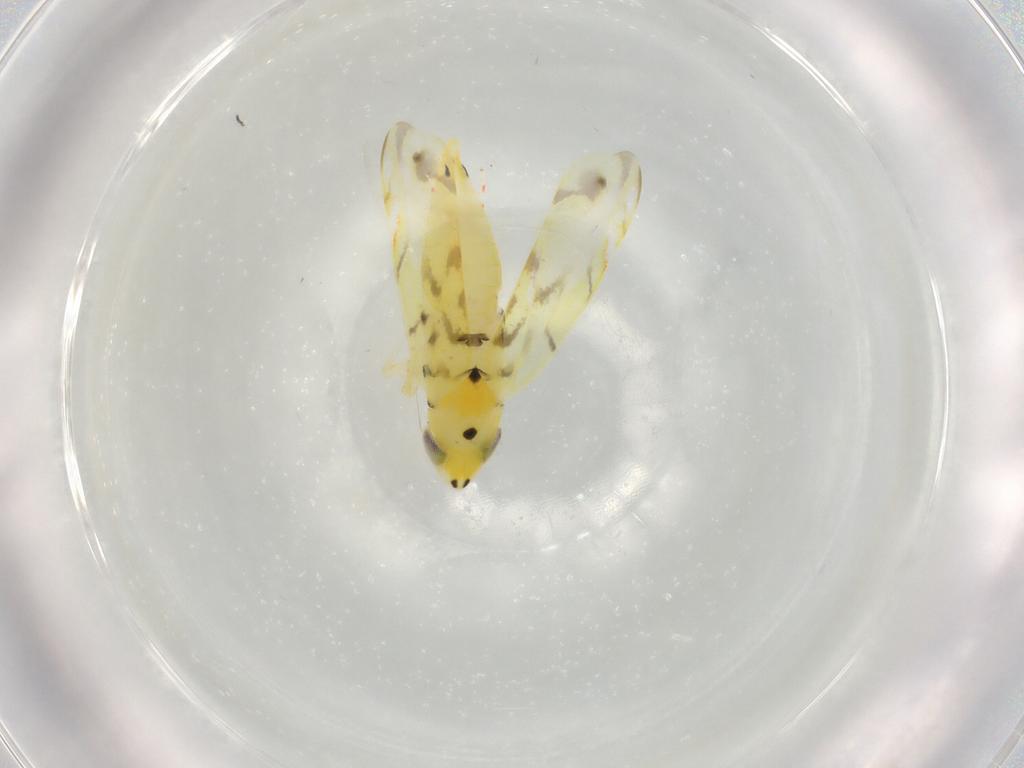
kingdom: Animalia
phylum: Arthropoda
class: Insecta
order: Hemiptera
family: Cicadellidae
